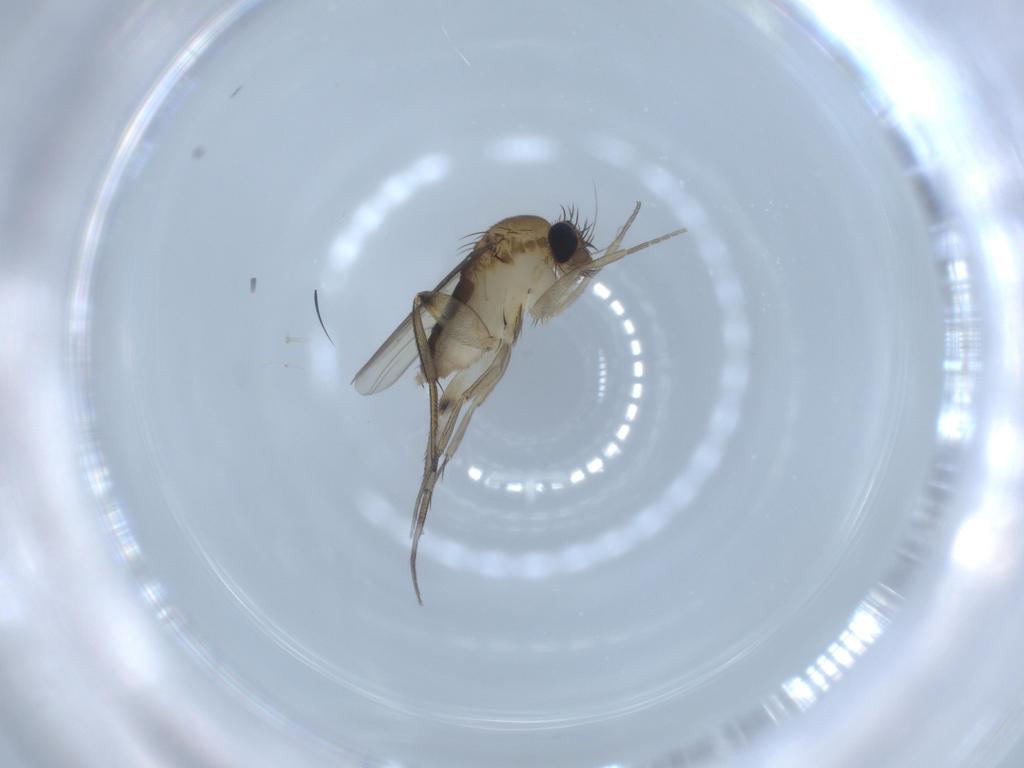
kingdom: Animalia
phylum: Arthropoda
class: Insecta
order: Diptera
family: Phoridae
